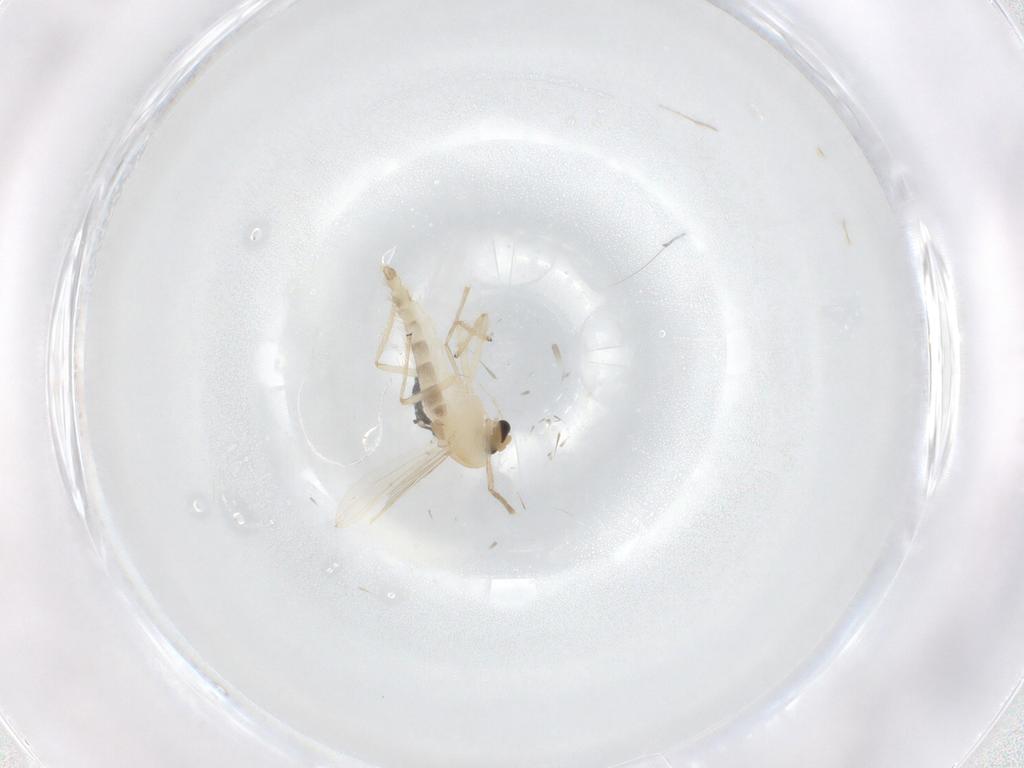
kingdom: Animalia
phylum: Arthropoda
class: Insecta
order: Diptera
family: Chironomidae
